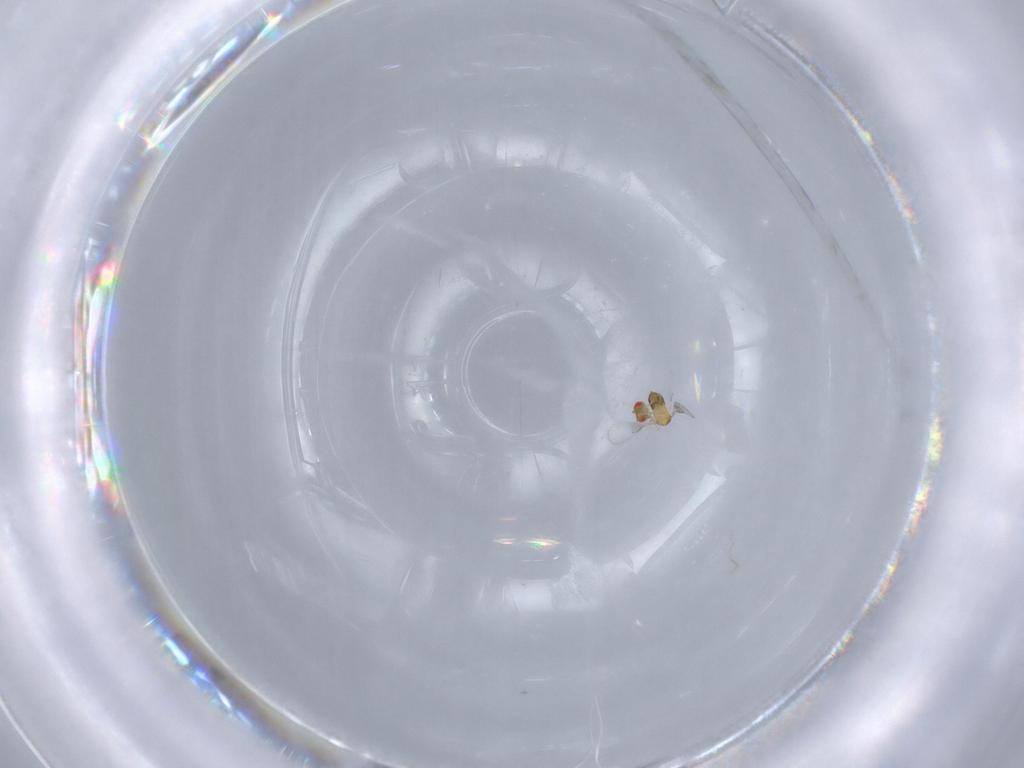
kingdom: Animalia
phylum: Arthropoda
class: Insecta
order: Hymenoptera
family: Trichogrammatidae
